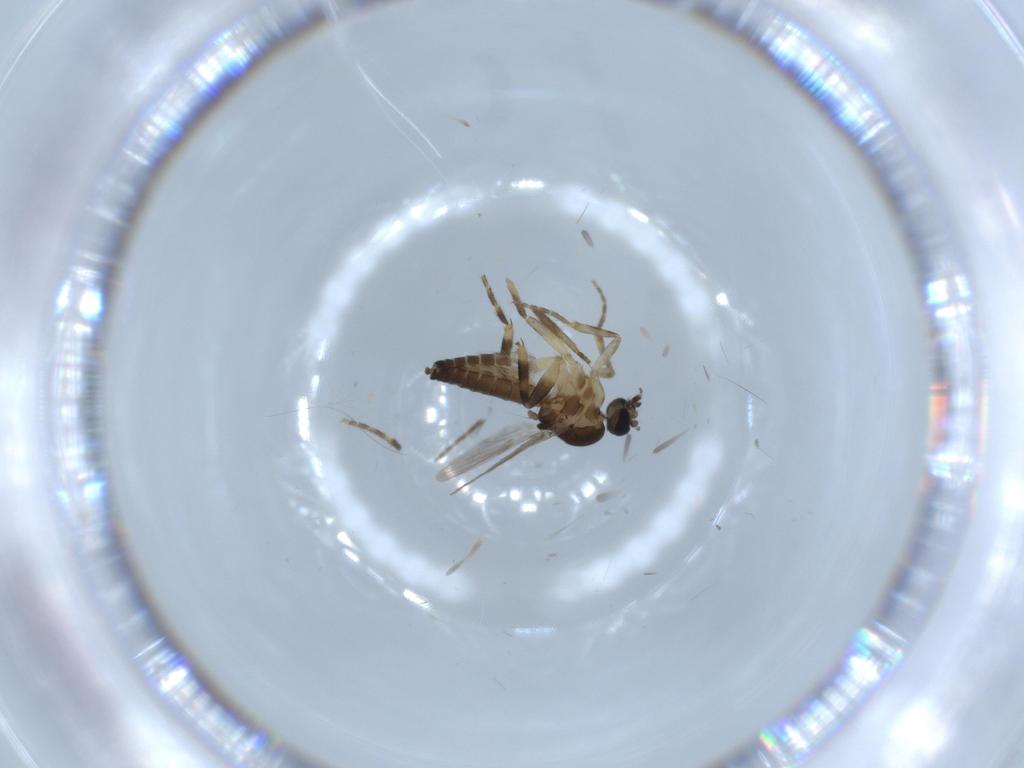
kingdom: Animalia
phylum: Arthropoda
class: Insecta
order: Diptera
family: Ceratopogonidae
